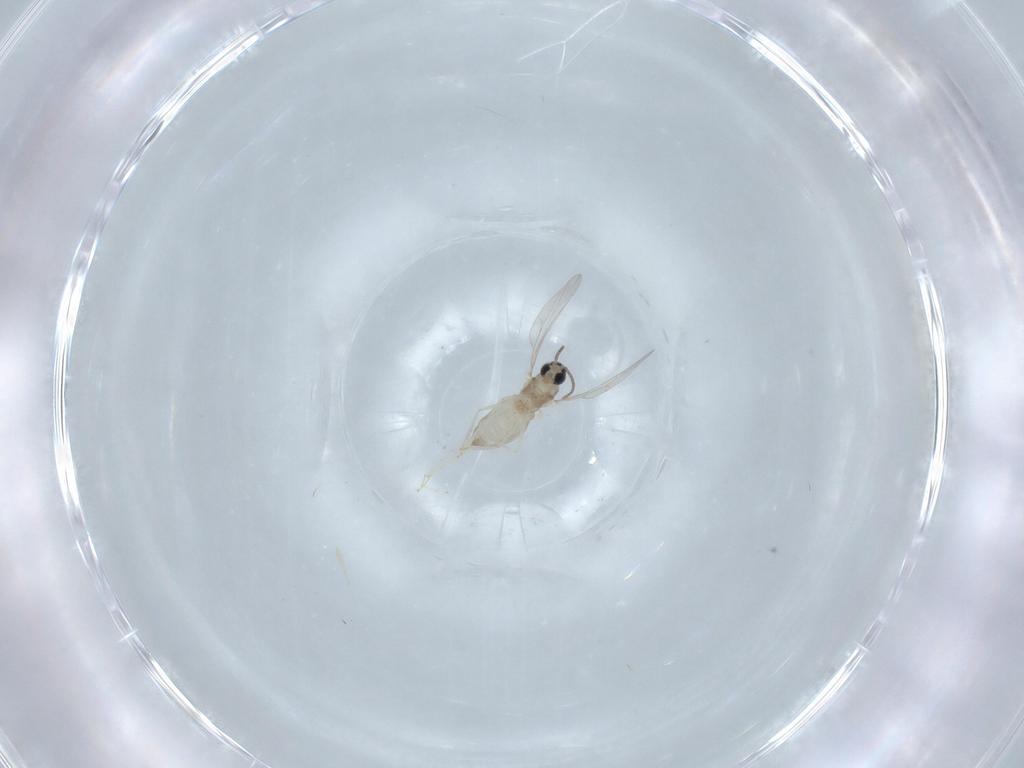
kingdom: Animalia
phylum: Arthropoda
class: Insecta
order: Diptera
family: Cecidomyiidae
